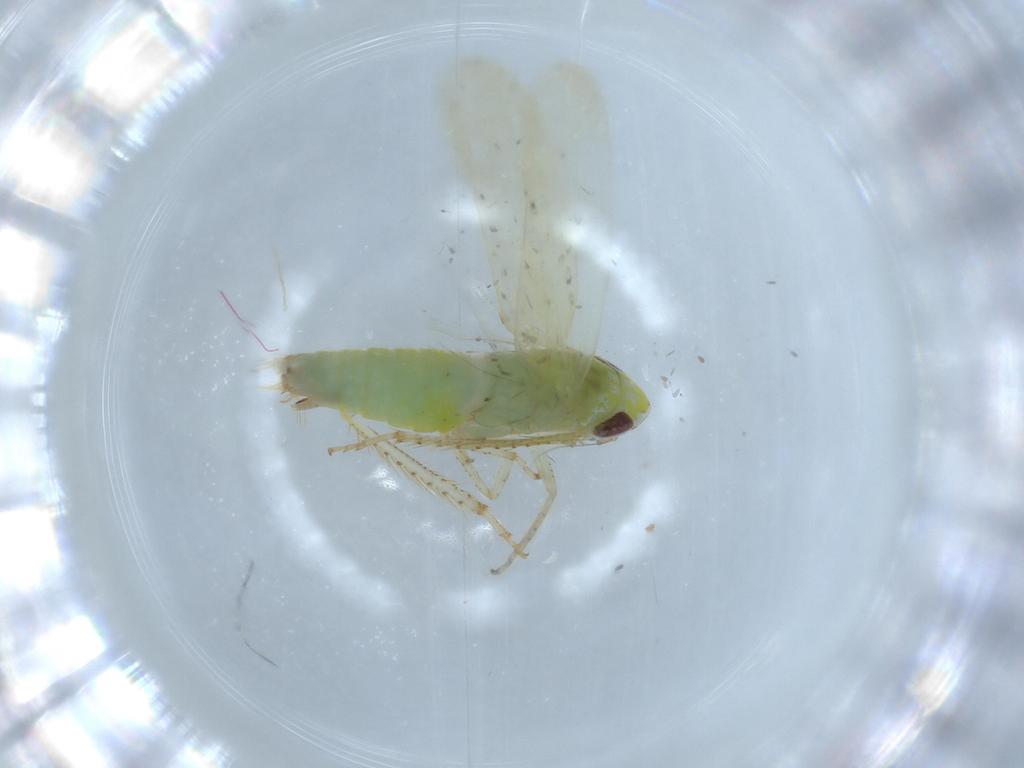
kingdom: Animalia
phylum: Arthropoda
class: Insecta
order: Hemiptera
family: Cicadellidae
